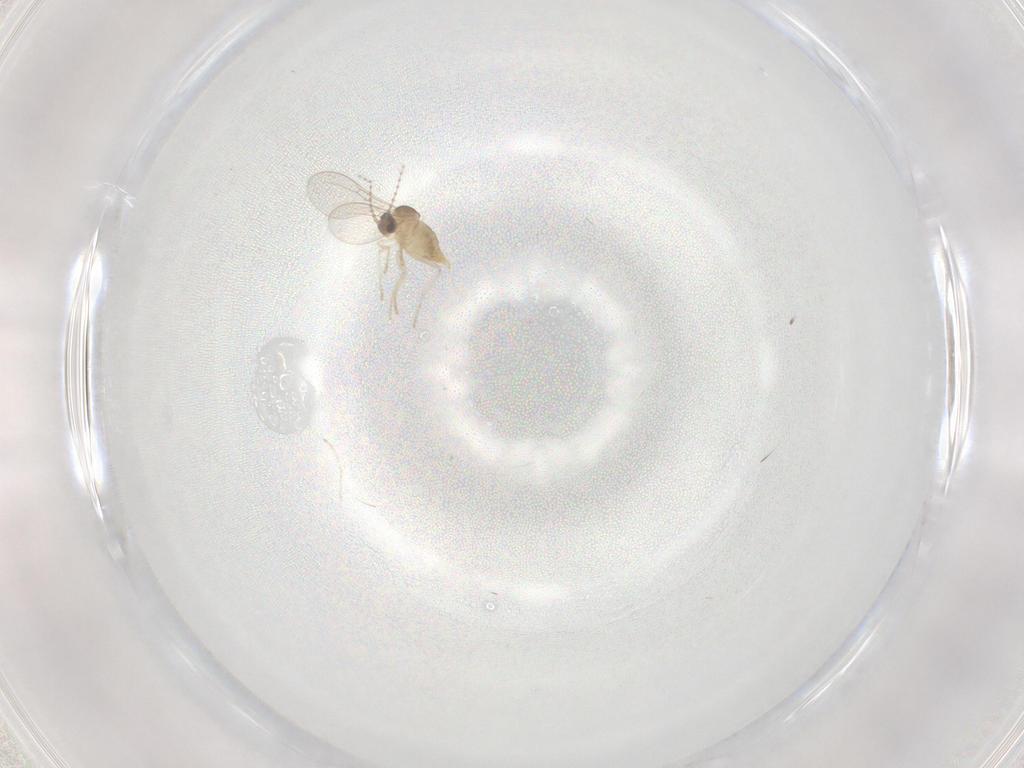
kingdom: Animalia
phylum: Arthropoda
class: Insecta
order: Diptera
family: Cecidomyiidae
